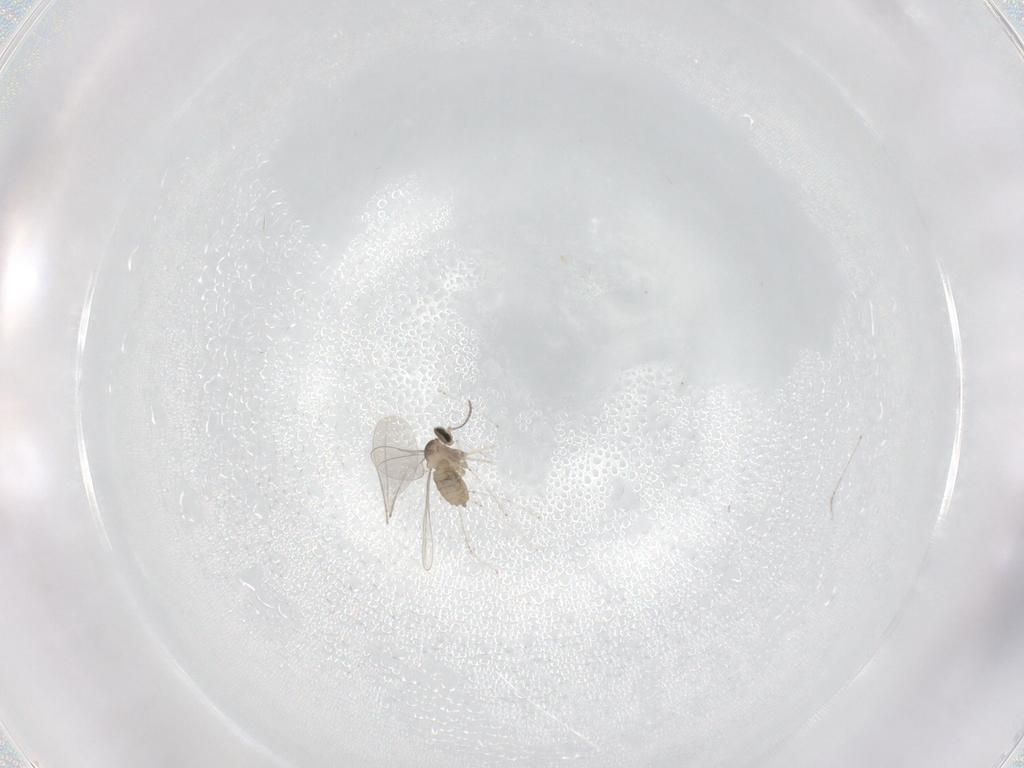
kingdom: Animalia
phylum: Arthropoda
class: Insecta
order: Diptera
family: Cecidomyiidae
